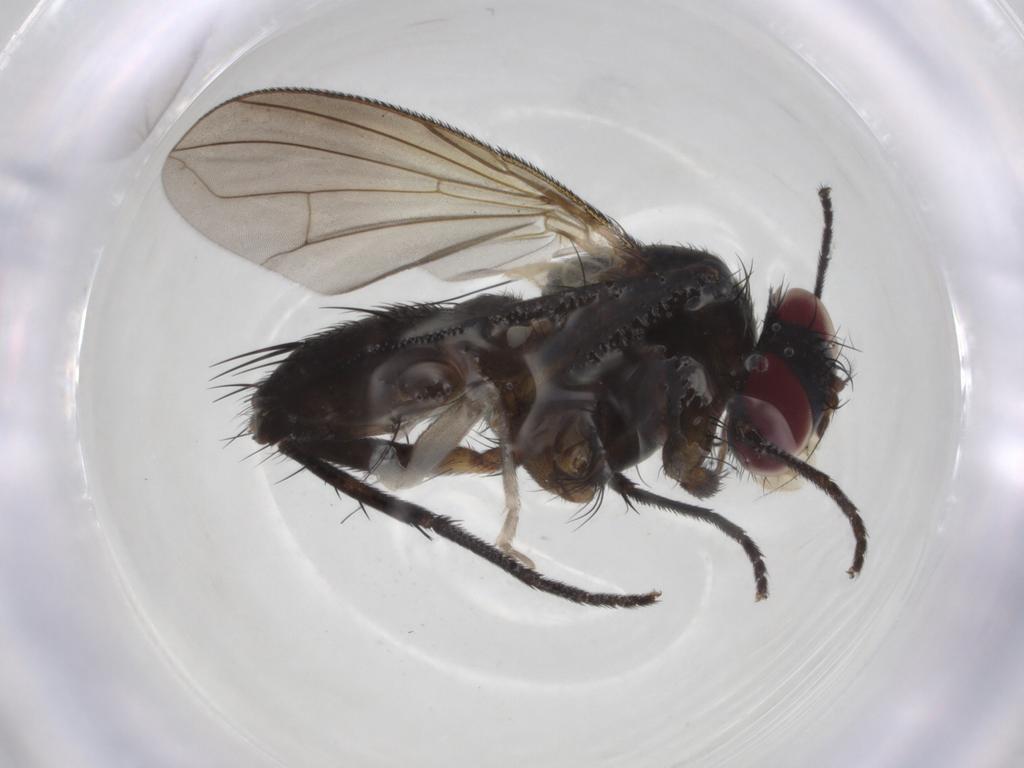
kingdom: Animalia
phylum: Arthropoda
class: Insecta
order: Diptera
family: Tachinidae
